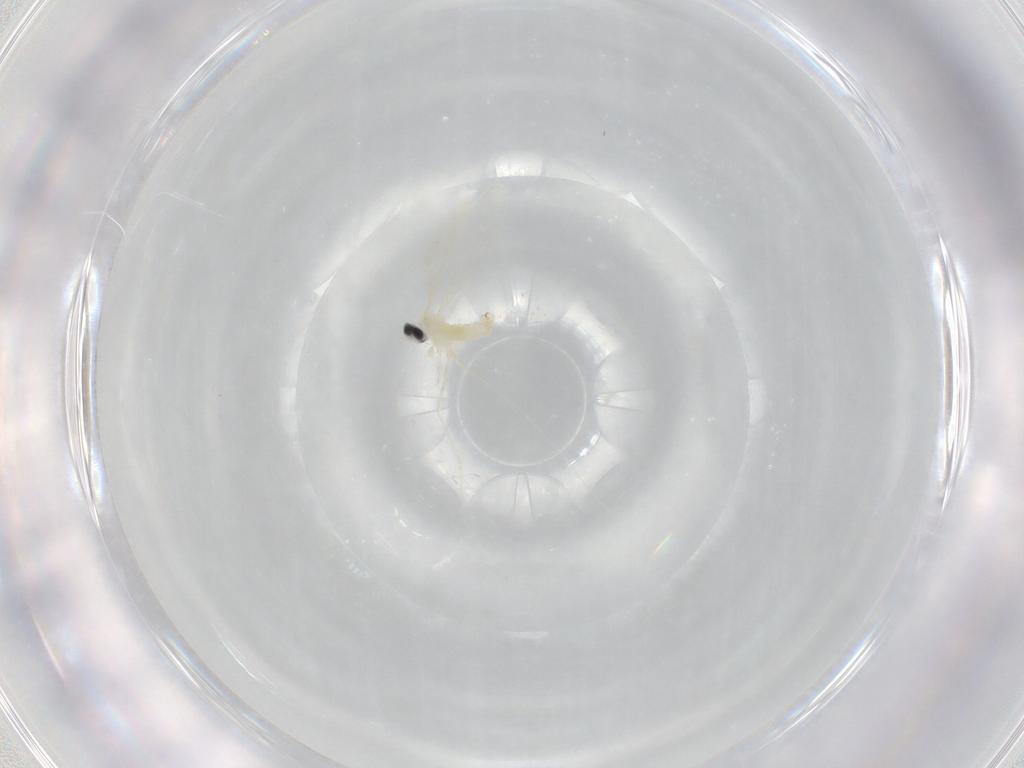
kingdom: Animalia
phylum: Arthropoda
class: Insecta
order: Diptera
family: Cecidomyiidae
